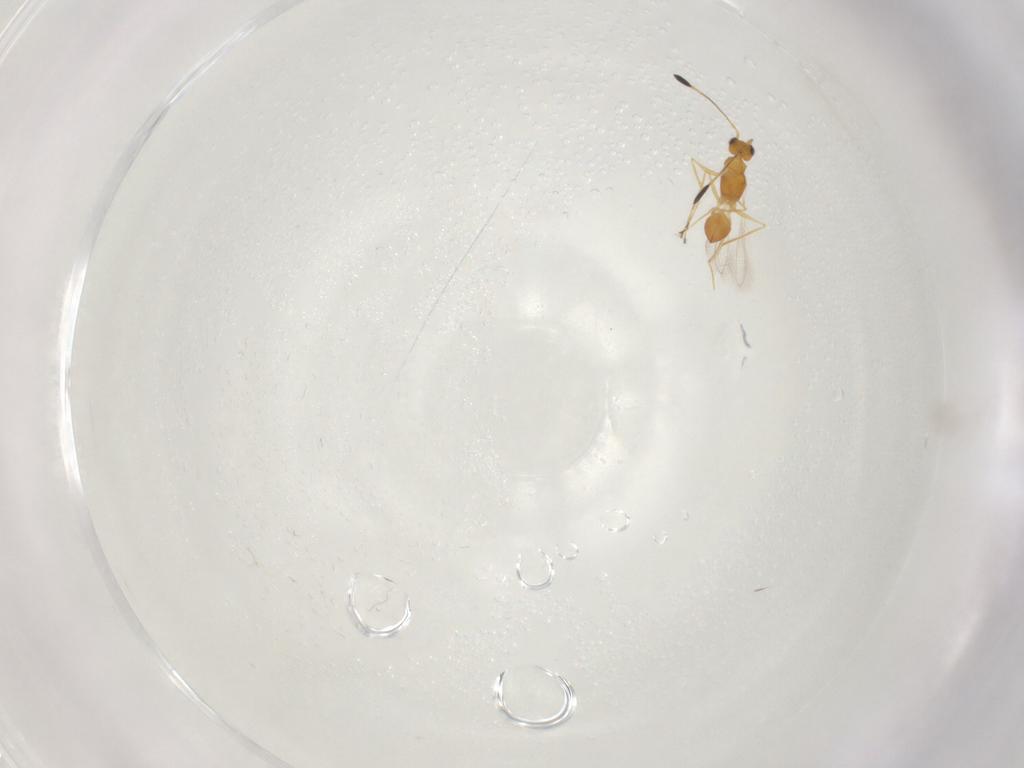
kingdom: Animalia
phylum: Arthropoda
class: Insecta
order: Hymenoptera
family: Mymaridae
